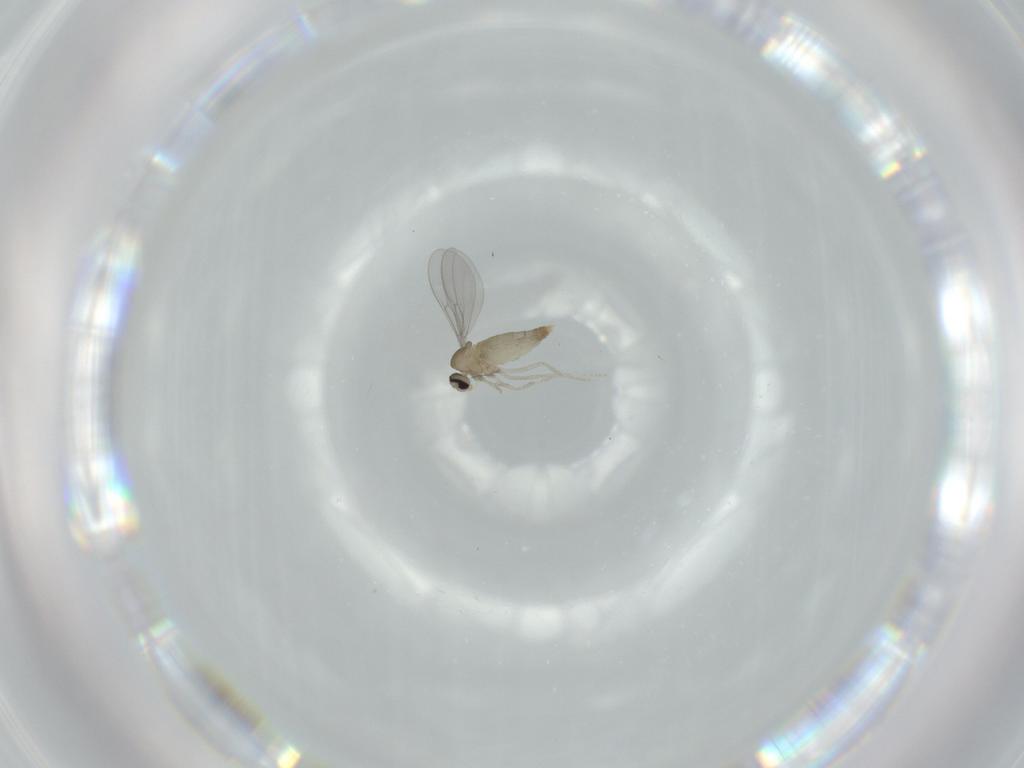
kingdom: Animalia
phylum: Arthropoda
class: Insecta
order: Diptera
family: Cecidomyiidae
